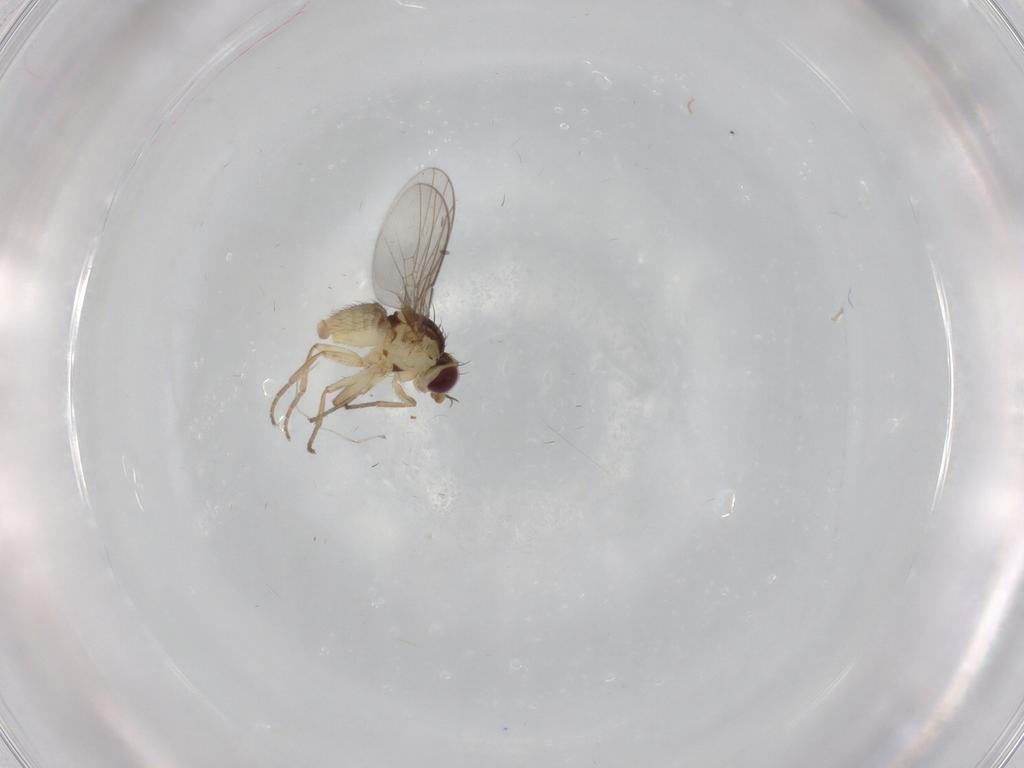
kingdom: Animalia
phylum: Arthropoda
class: Insecta
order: Diptera
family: Agromyzidae
